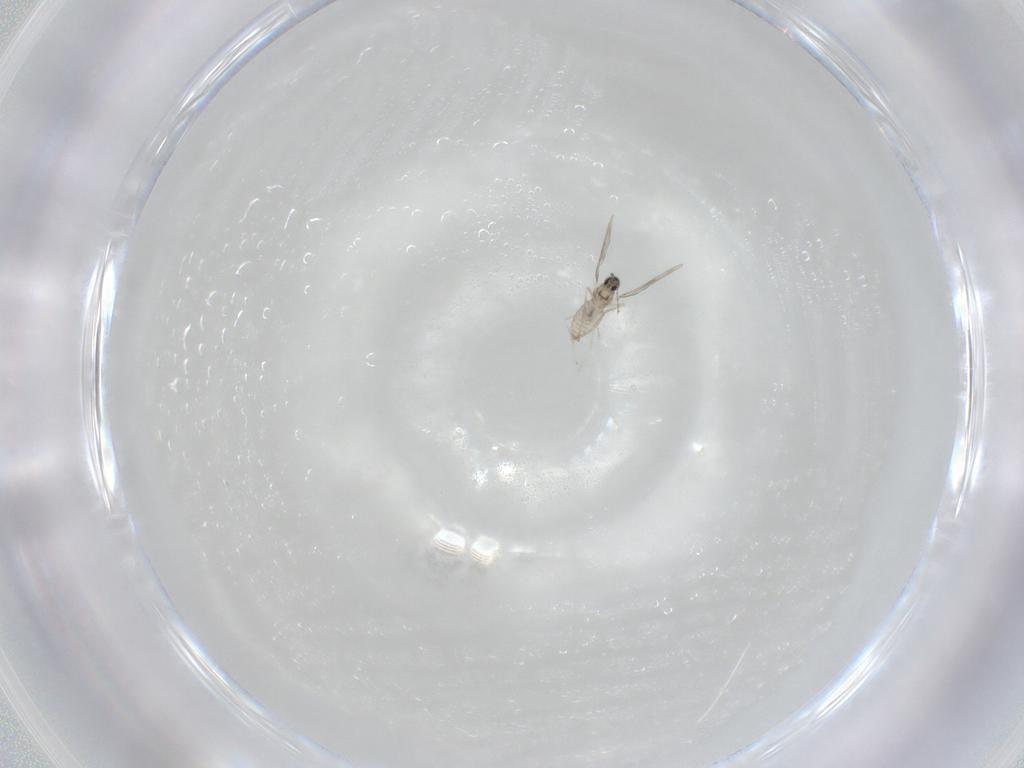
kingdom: Animalia
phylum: Arthropoda
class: Insecta
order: Diptera
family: Cecidomyiidae
